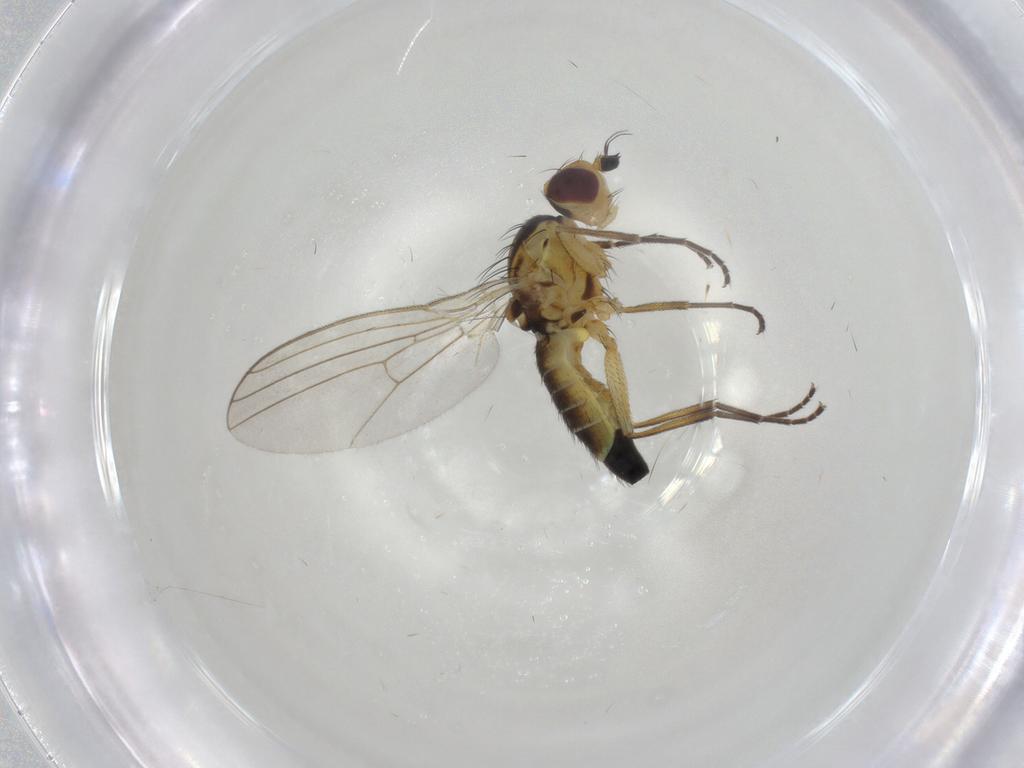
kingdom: Animalia
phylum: Arthropoda
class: Insecta
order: Diptera
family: Agromyzidae
